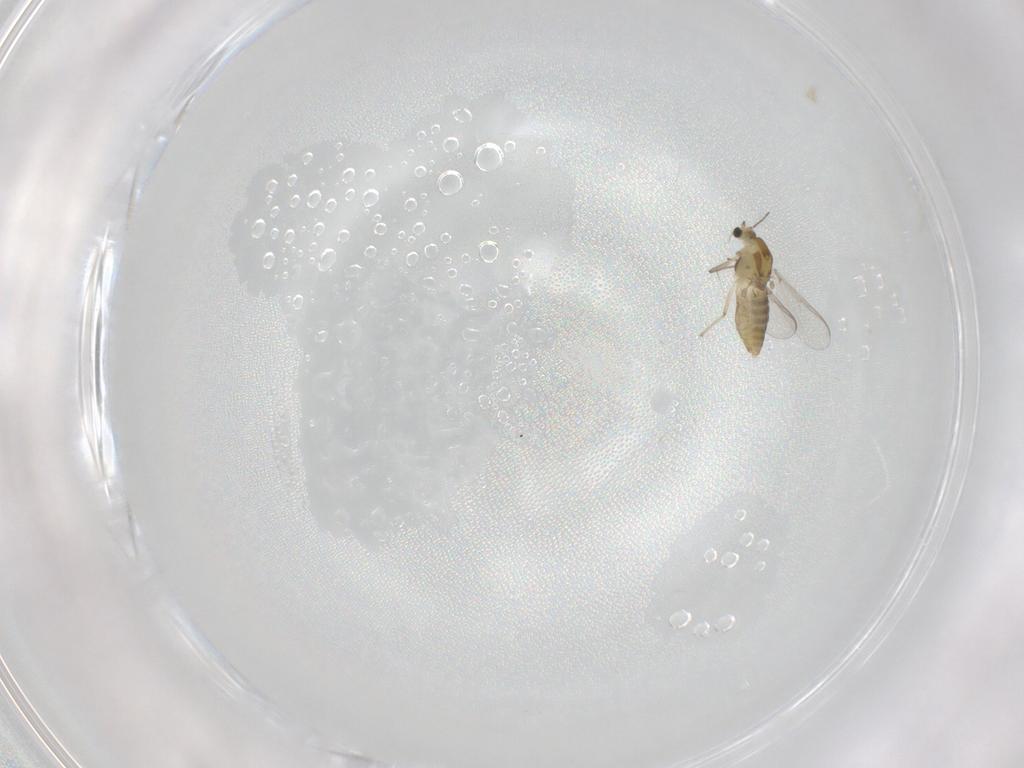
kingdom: Animalia
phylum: Arthropoda
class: Insecta
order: Diptera
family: Chironomidae
